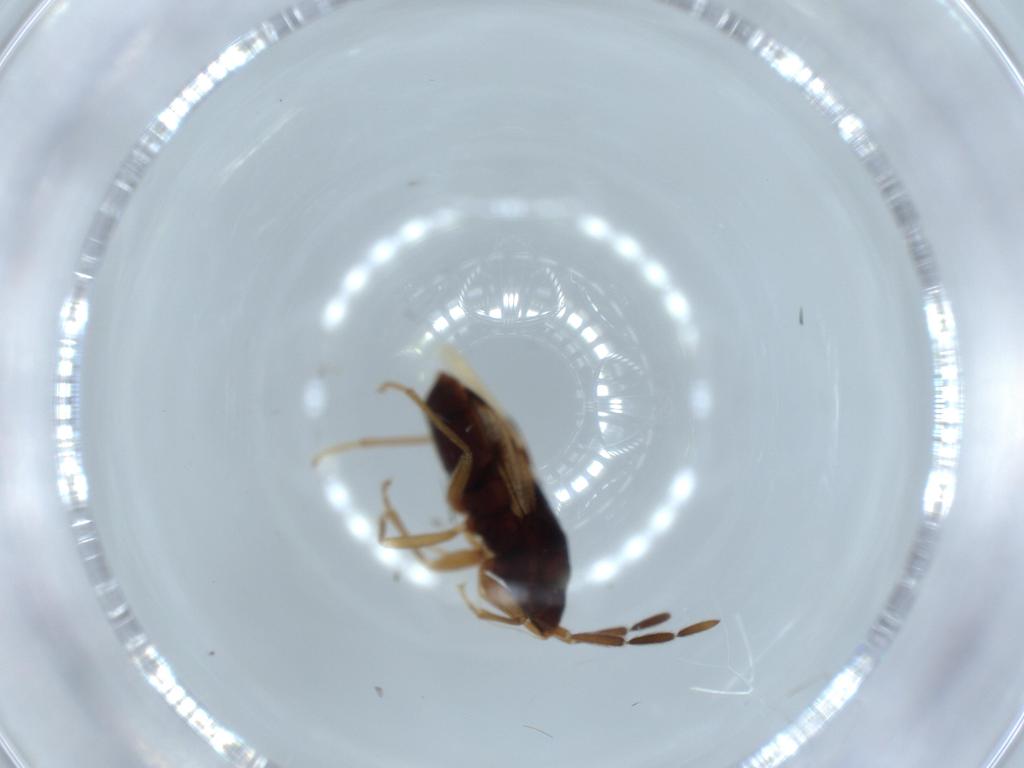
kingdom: Animalia
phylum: Arthropoda
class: Insecta
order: Hemiptera
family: Rhyparochromidae
